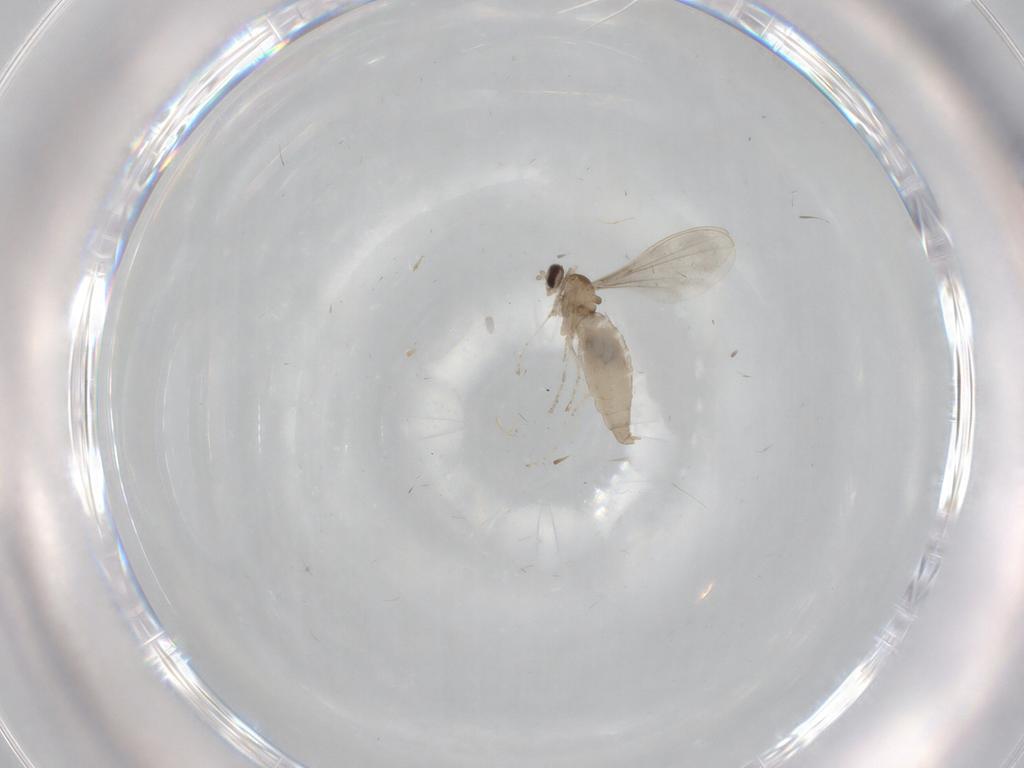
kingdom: Animalia
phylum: Arthropoda
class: Insecta
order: Diptera
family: Cecidomyiidae
